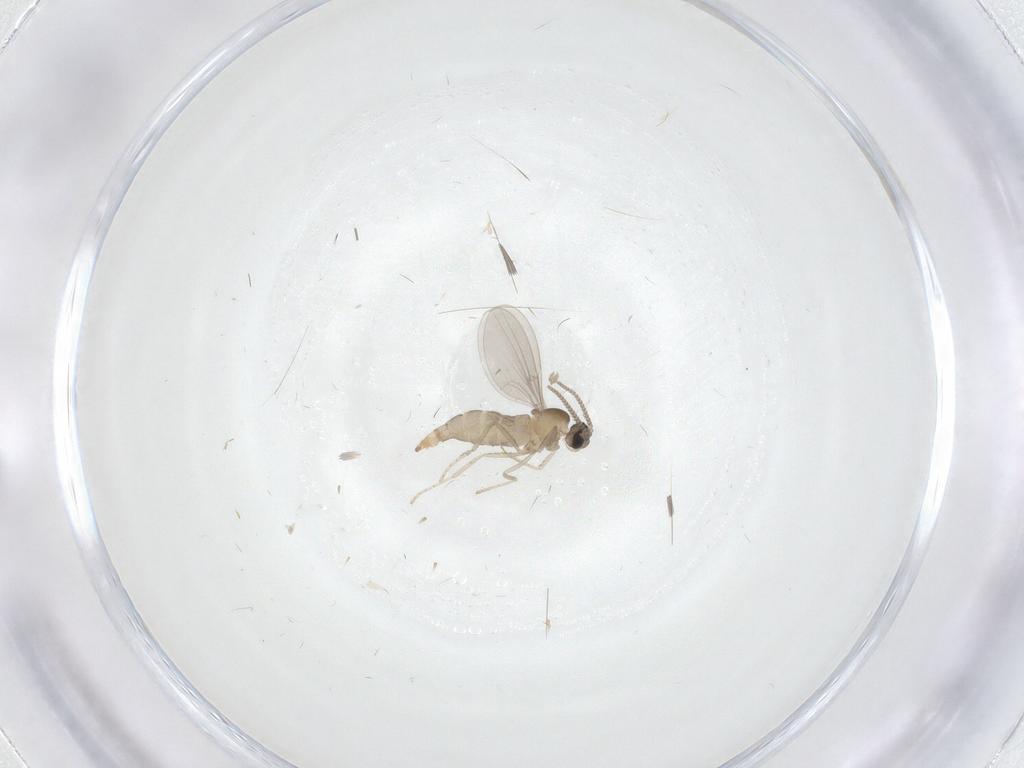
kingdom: Animalia
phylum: Arthropoda
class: Insecta
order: Diptera
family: Cecidomyiidae
